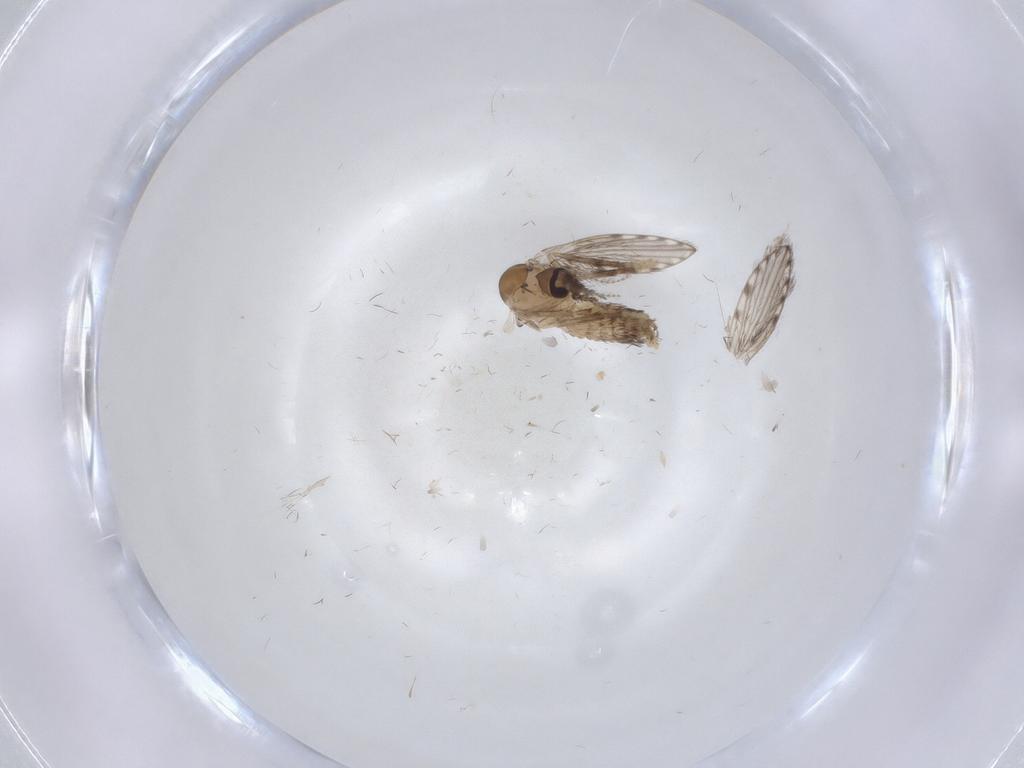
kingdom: Animalia
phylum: Arthropoda
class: Insecta
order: Diptera
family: Psychodidae
